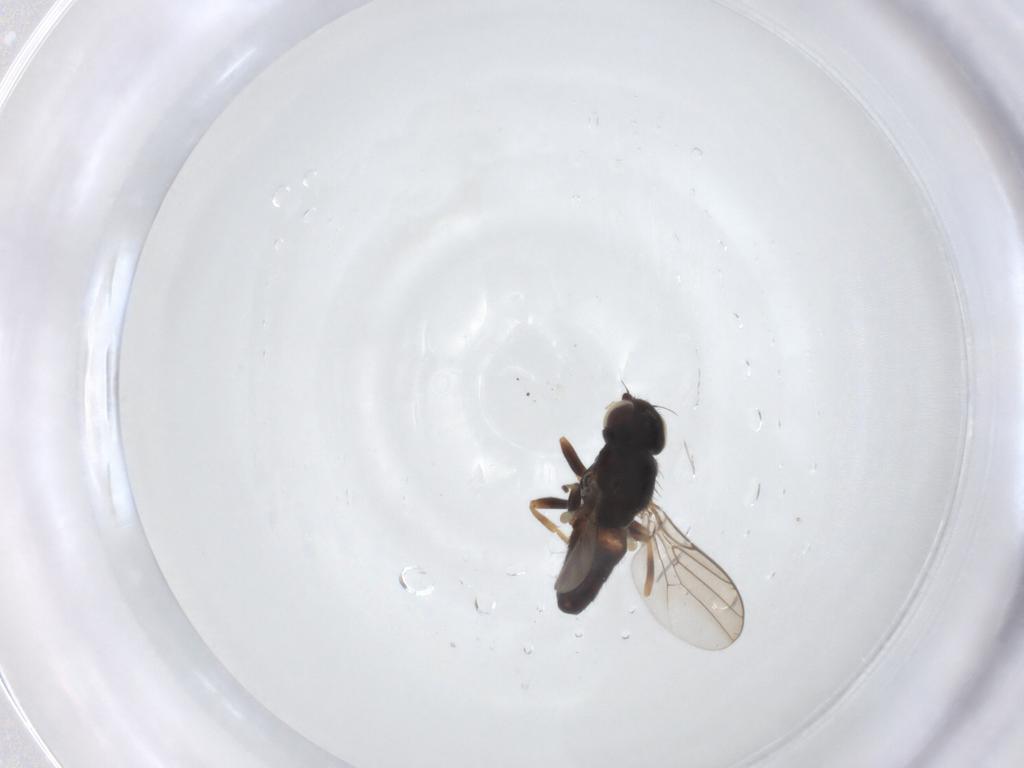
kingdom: Animalia
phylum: Arthropoda
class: Insecta
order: Diptera
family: Chloropidae
